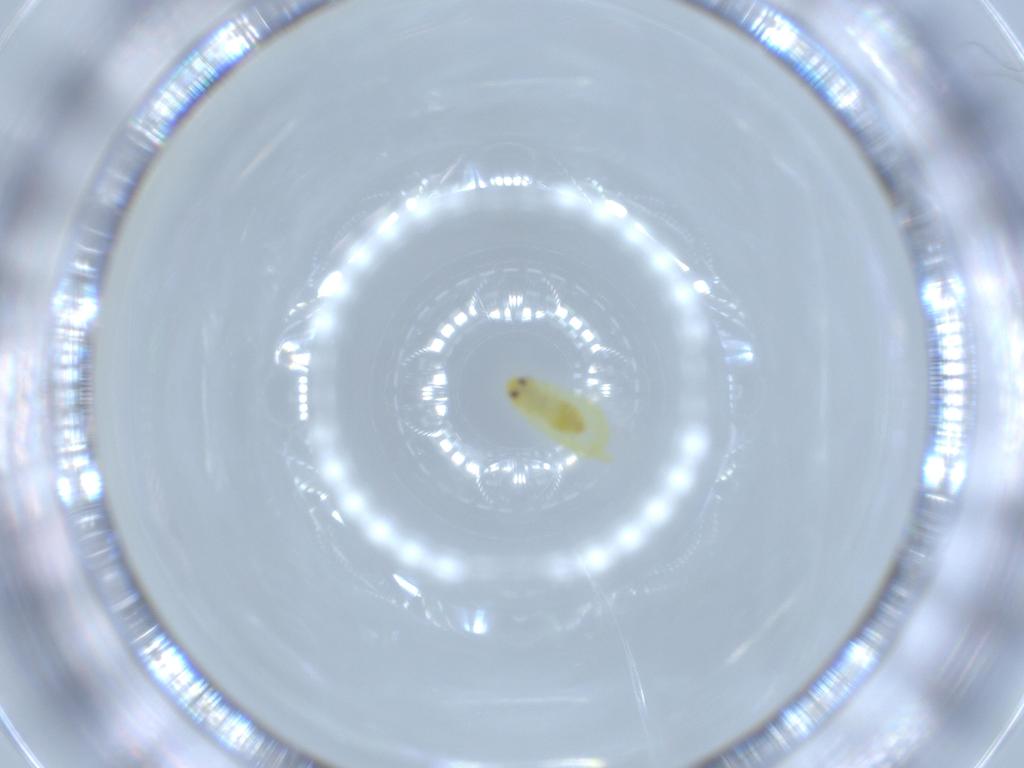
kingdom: Animalia
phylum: Arthropoda
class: Insecta
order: Hemiptera
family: Aleyrodidae
